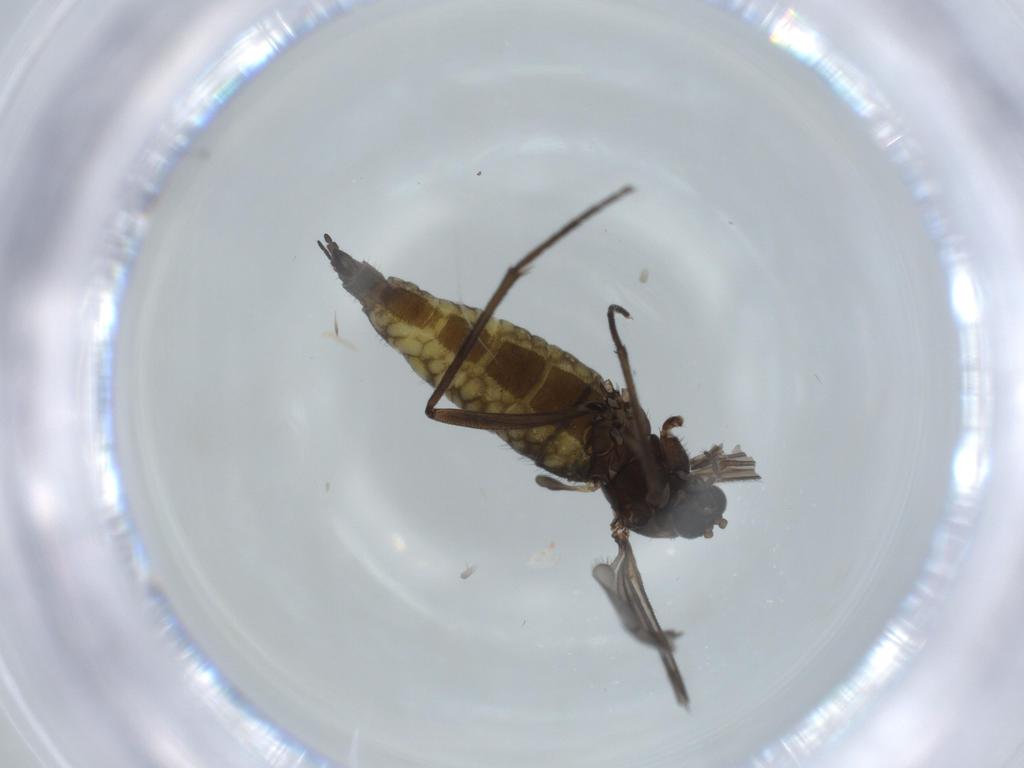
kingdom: Animalia
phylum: Arthropoda
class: Insecta
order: Diptera
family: Sciaridae
